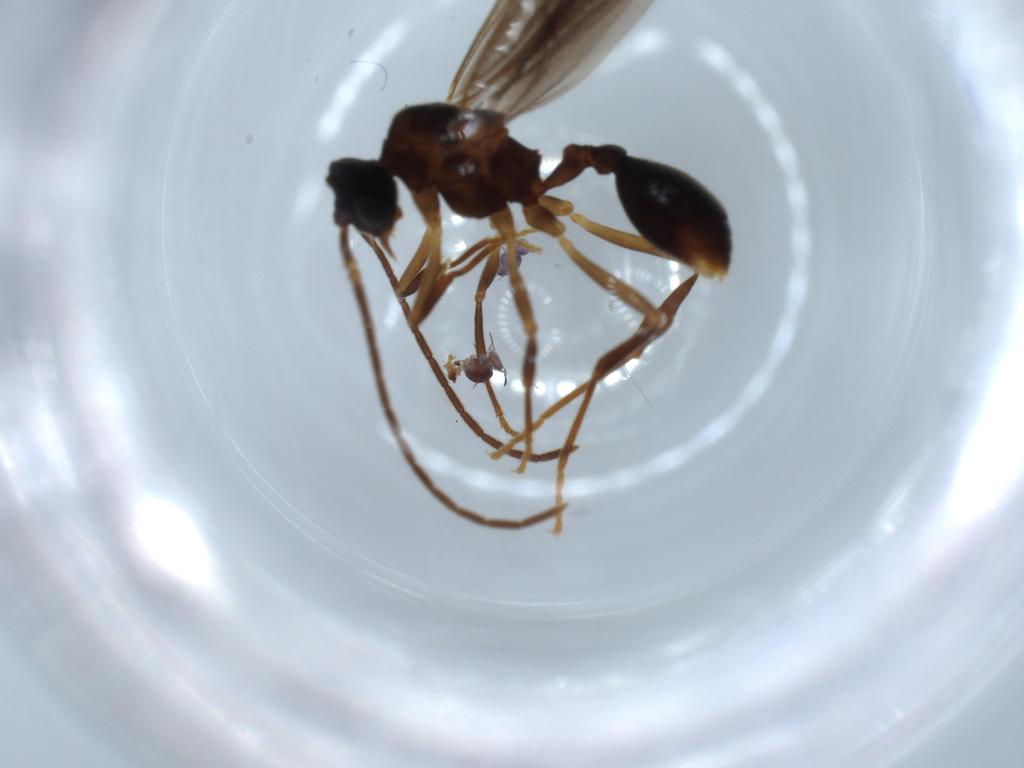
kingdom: Animalia
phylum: Arthropoda
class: Insecta
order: Hymenoptera
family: Formicidae
